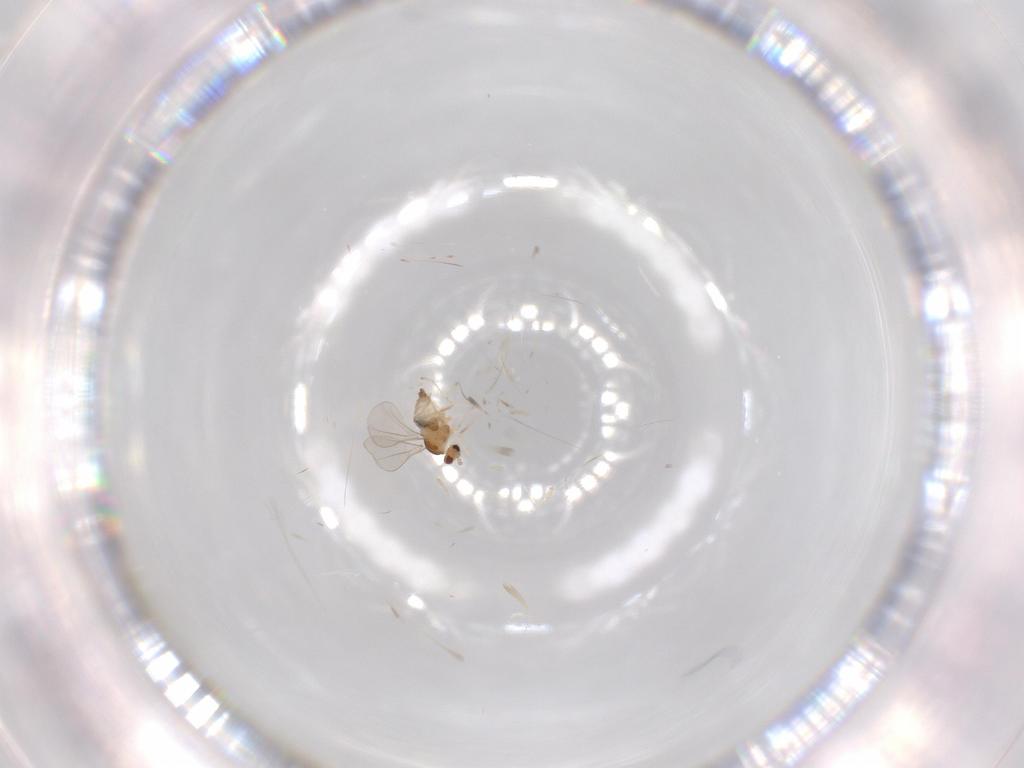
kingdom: Animalia
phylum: Arthropoda
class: Insecta
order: Diptera
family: Cecidomyiidae
